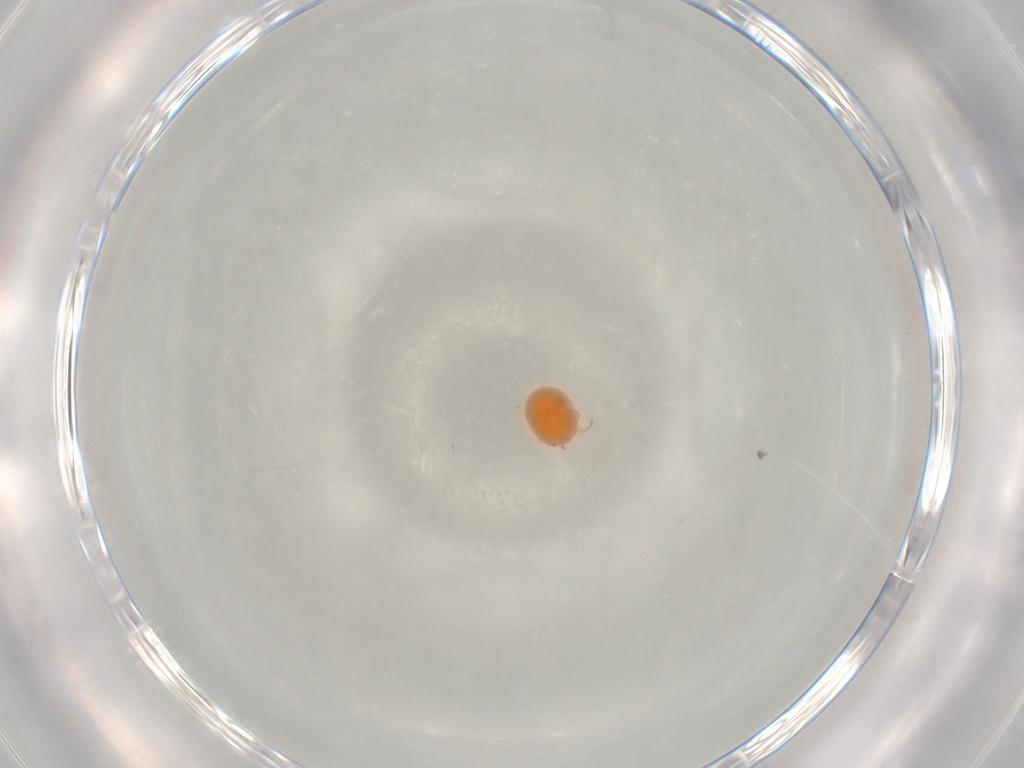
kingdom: Animalia
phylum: Arthropoda
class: Arachnida
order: Trombidiformes
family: Hydryphantidae
